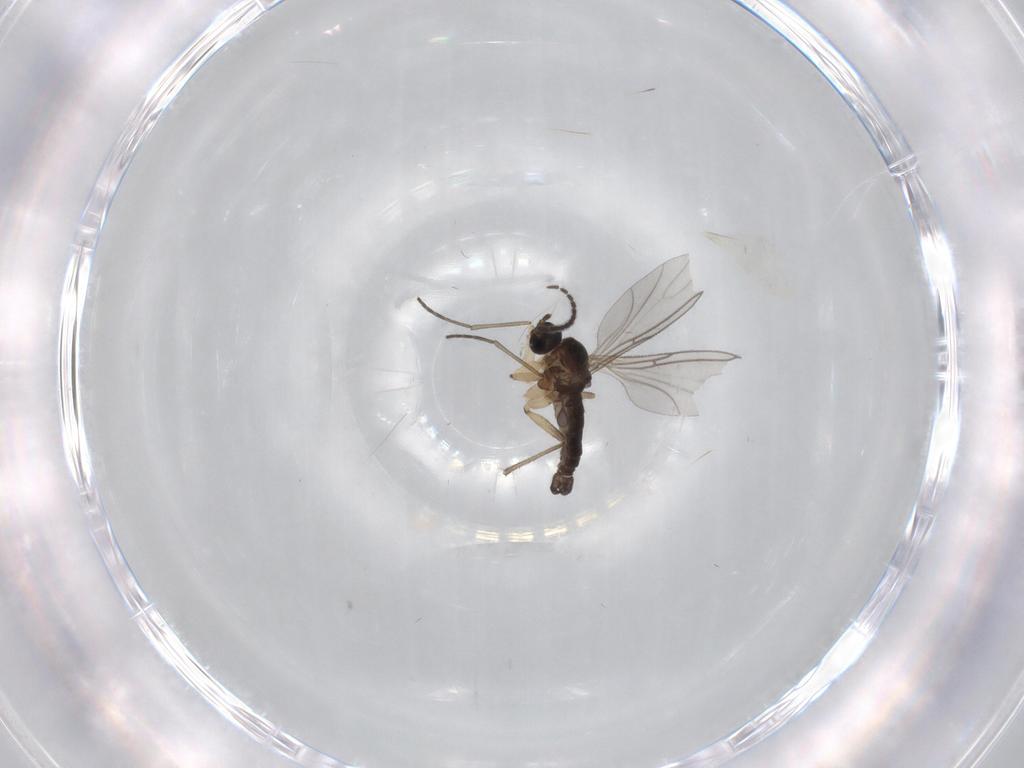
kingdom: Animalia
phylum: Arthropoda
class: Insecta
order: Diptera
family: Sciaridae
